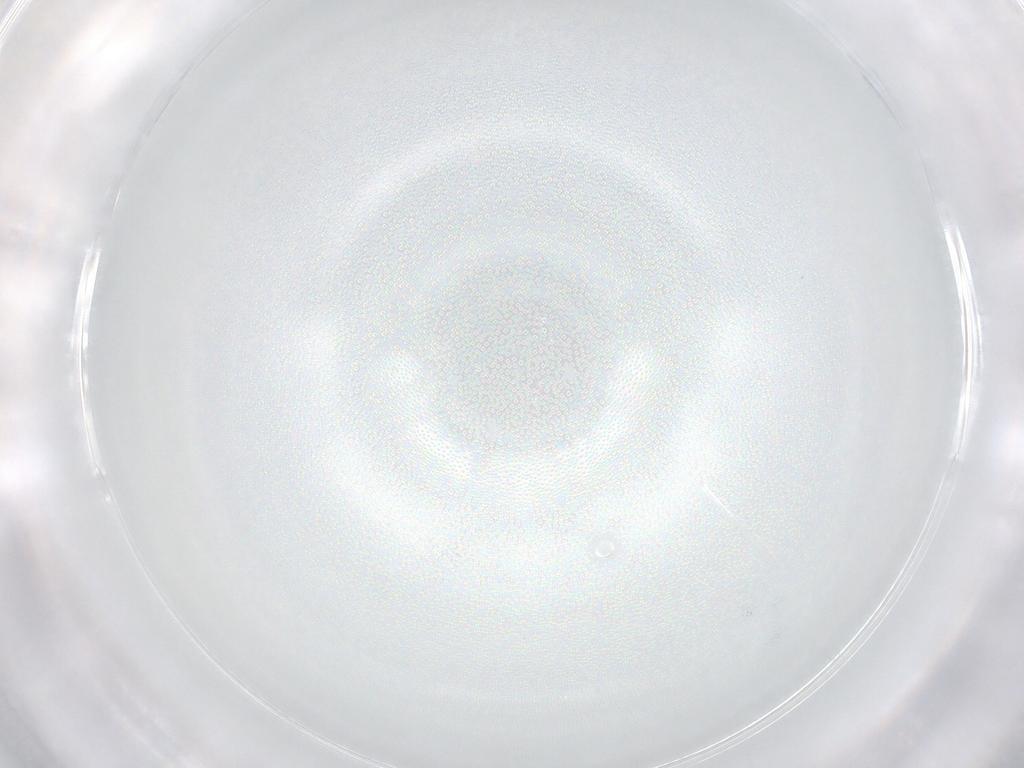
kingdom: Animalia
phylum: Arthropoda
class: Insecta
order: Diptera
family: Cecidomyiidae
